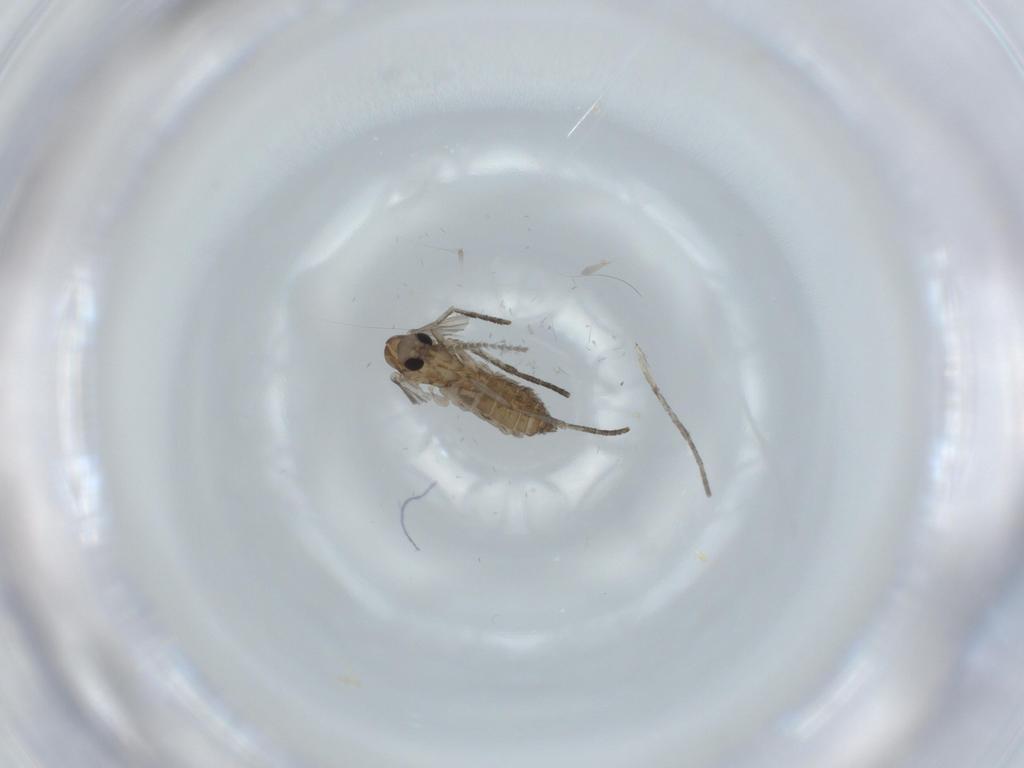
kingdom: Animalia
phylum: Arthropoda
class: Insecta
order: Diptera
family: Psychodidae
